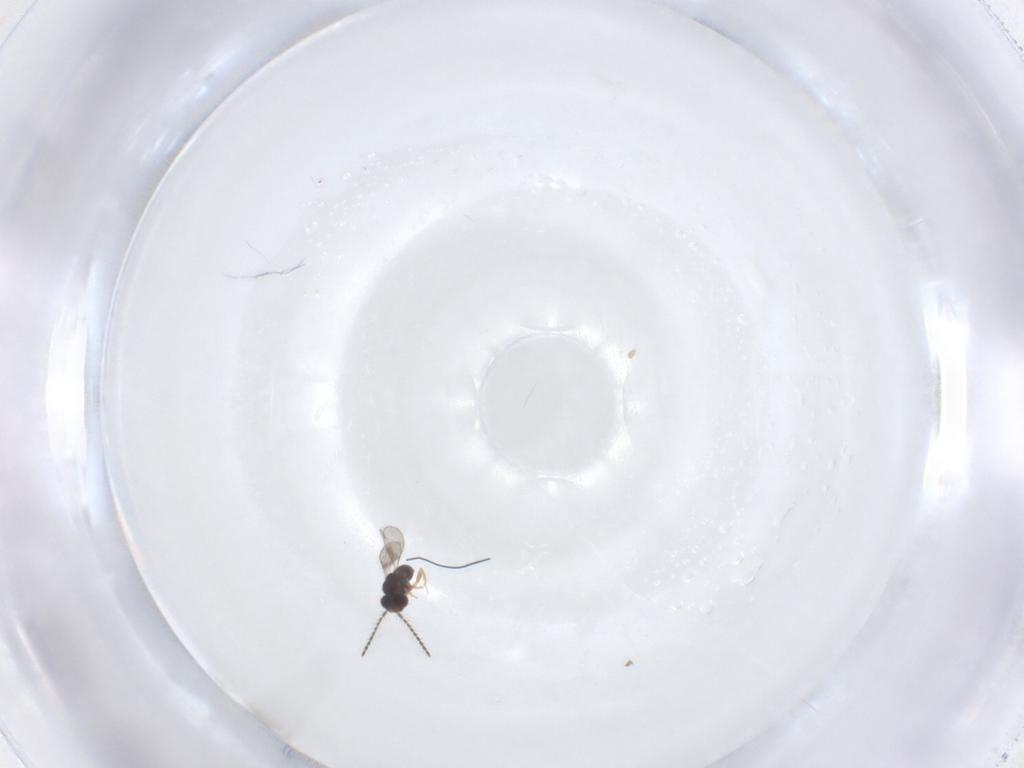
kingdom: Animalia
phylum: Arthropoda
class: Insecta
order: Hymenoptera
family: Ceraphronidae
